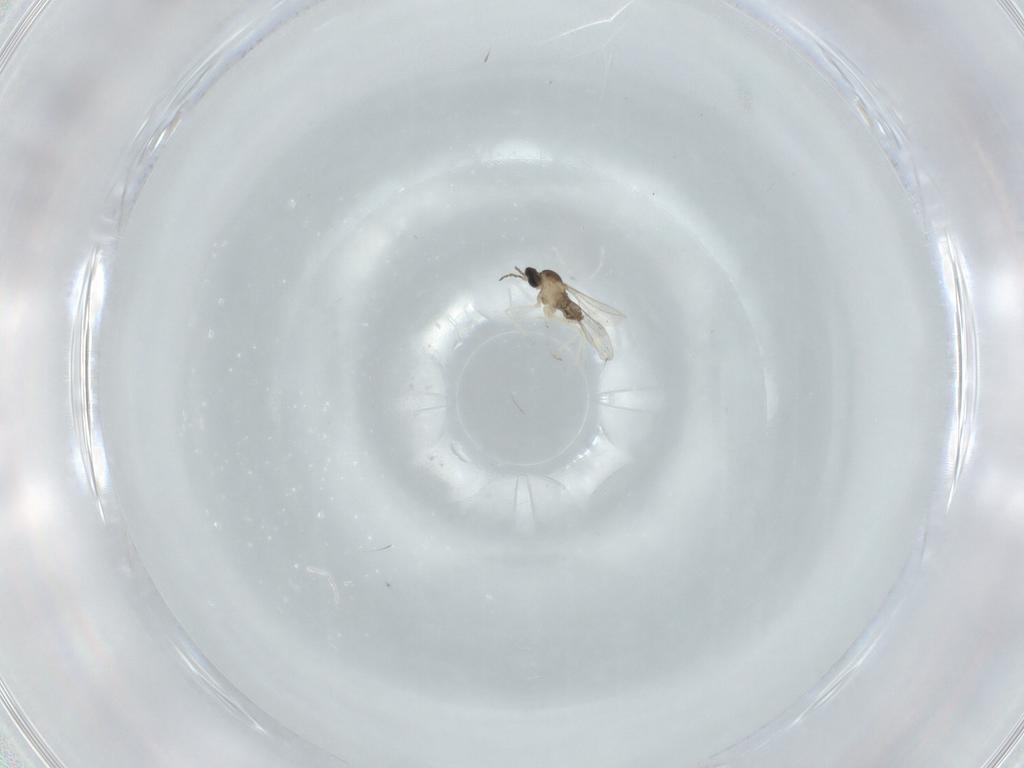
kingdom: Animalia
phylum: Arthropoda
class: Insecta
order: Diptera
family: Cecidomyiidae
